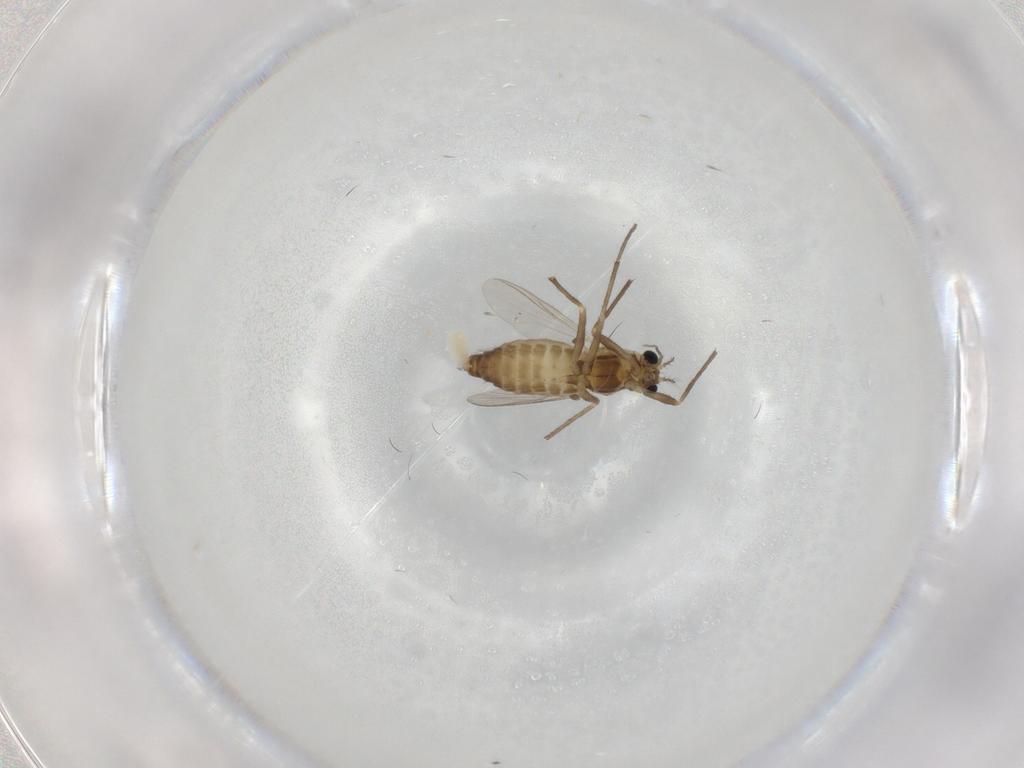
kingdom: Animalia
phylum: Arthropoda
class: Insecta
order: Diptera
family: Chironomidae
